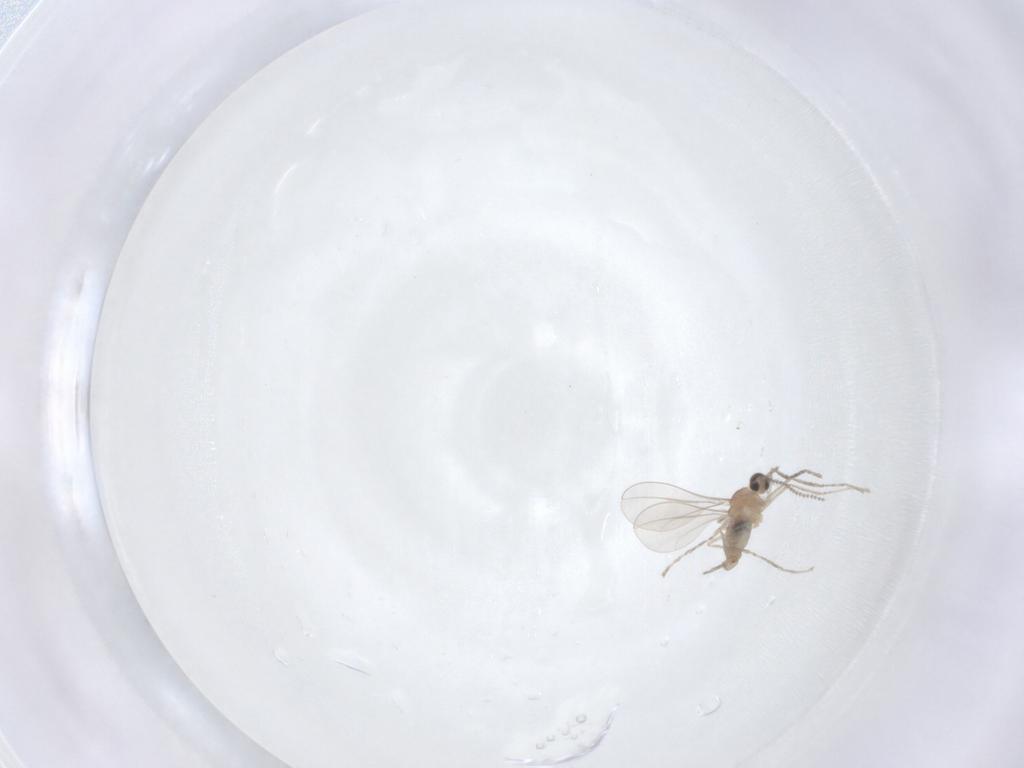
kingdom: Animalia
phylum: Arthropoda
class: Insecta
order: Diptera
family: Cecidomyiidae
